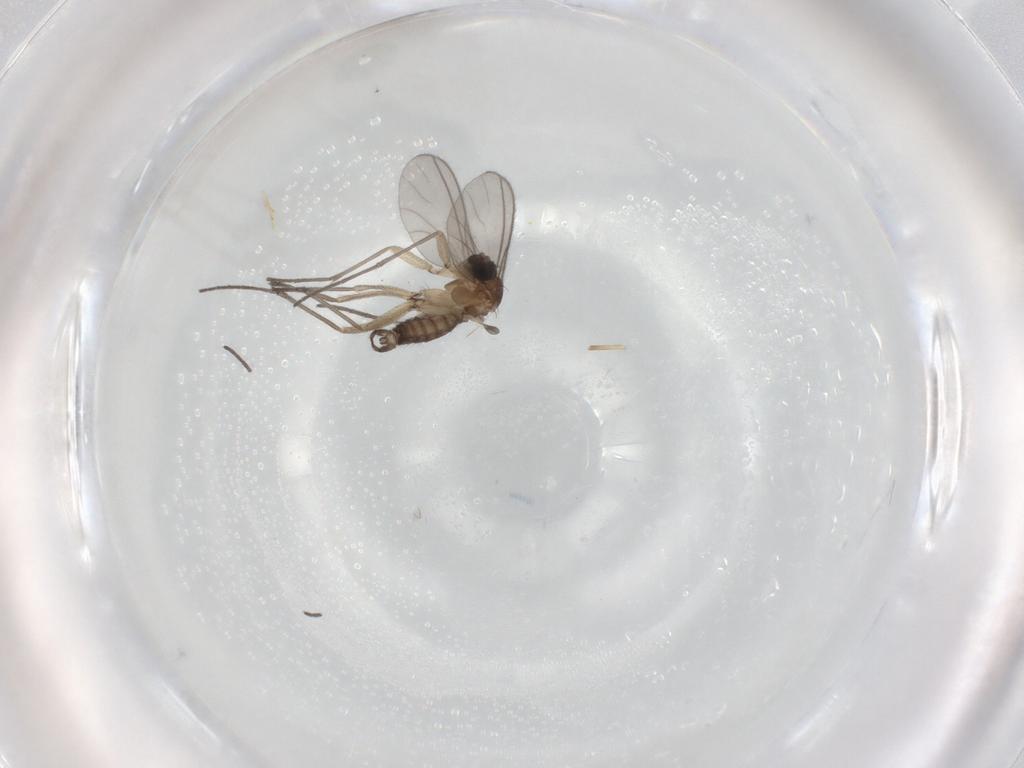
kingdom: Animalia
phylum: Arthropoda
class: Insecta
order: Diptera
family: Sciaridae
